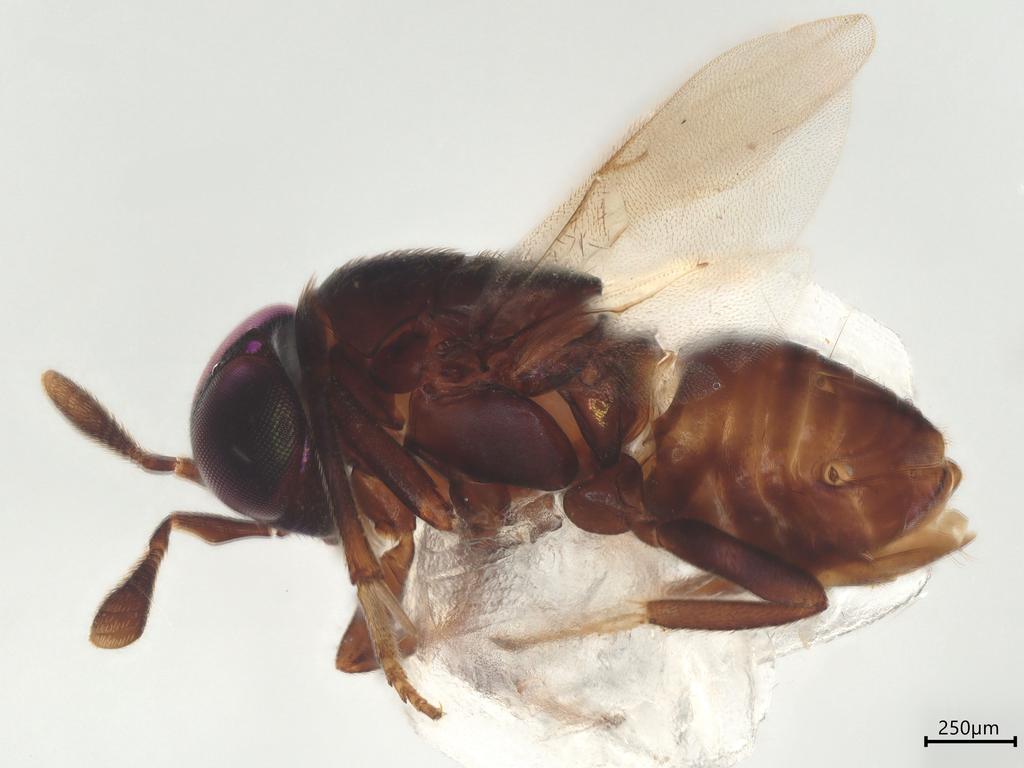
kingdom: Animalia
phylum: Arthropoda
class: Insecta
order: Hymenoptera
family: Encyrtidae
